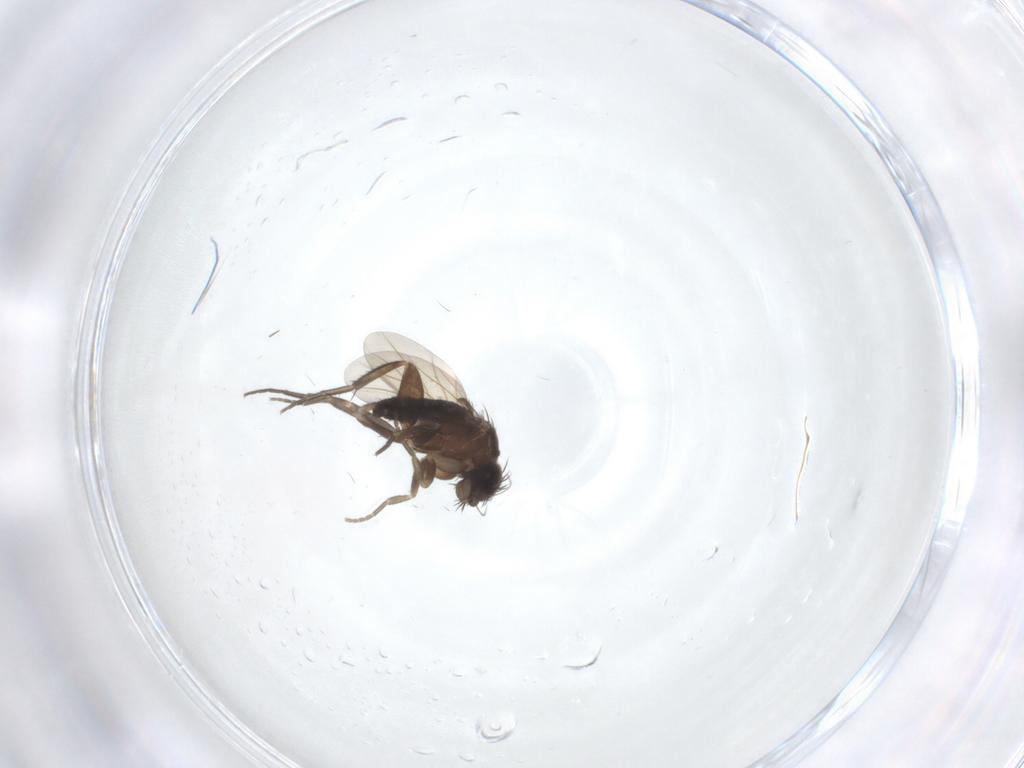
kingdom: Animalia
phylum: Arthropoda
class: Insecta
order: Diptera
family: Phoridae
